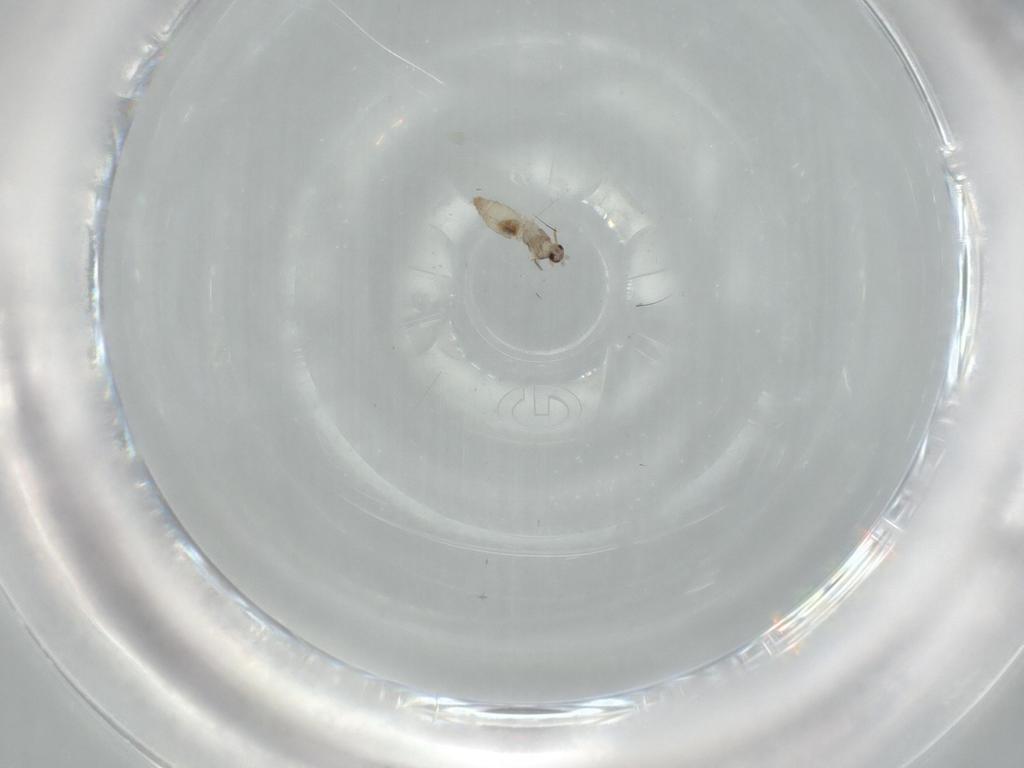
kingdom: Animalia
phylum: Arthropoda
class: Insecta
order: Diptera
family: Cecidomyiidae
